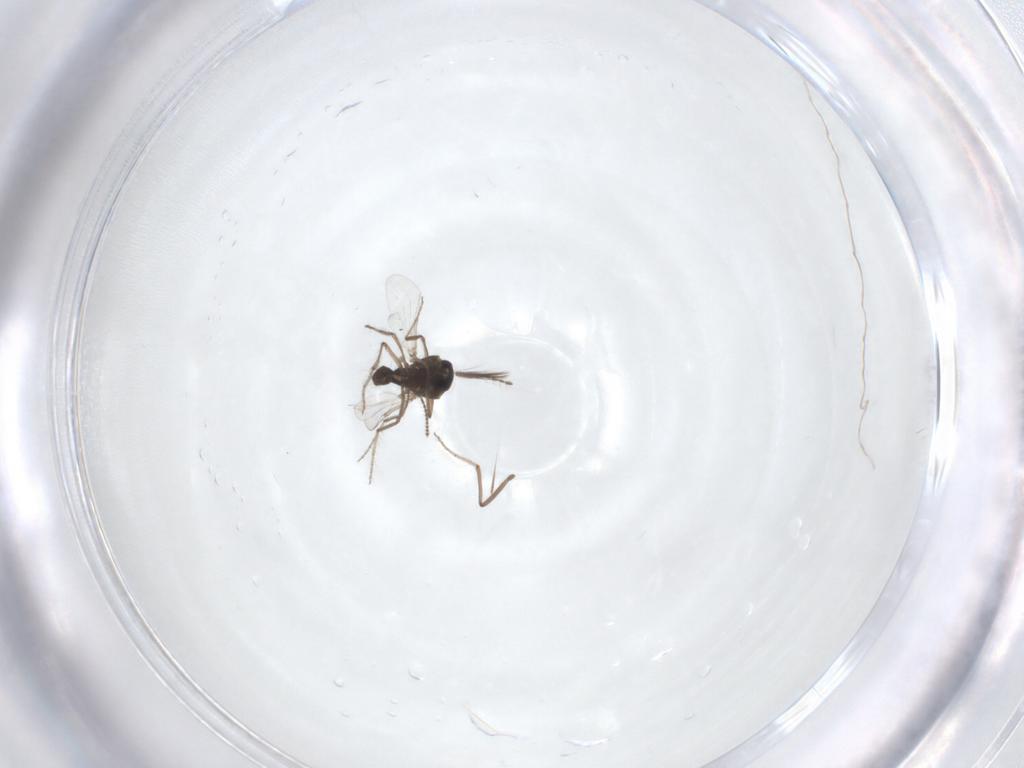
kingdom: Animalia
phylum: Arthropoda
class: Insecta
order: Diptera
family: Ceratopogonidae
